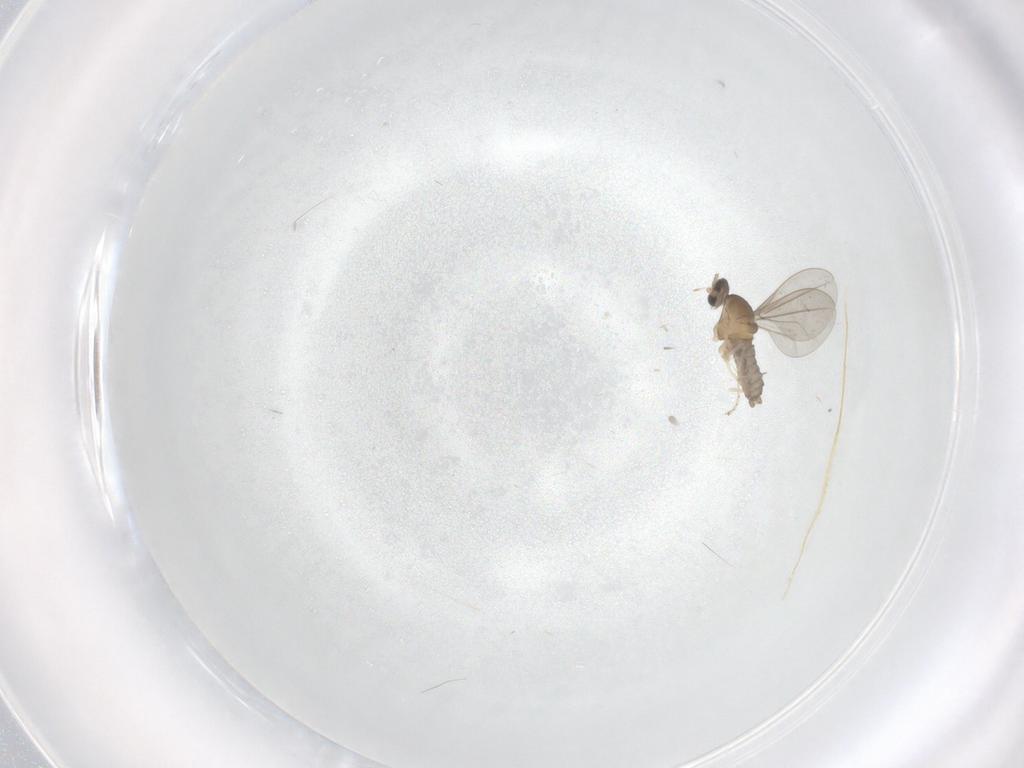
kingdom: Animalia
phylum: Arthropoda
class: Insecta
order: Diptera
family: Cecidomyiidae
